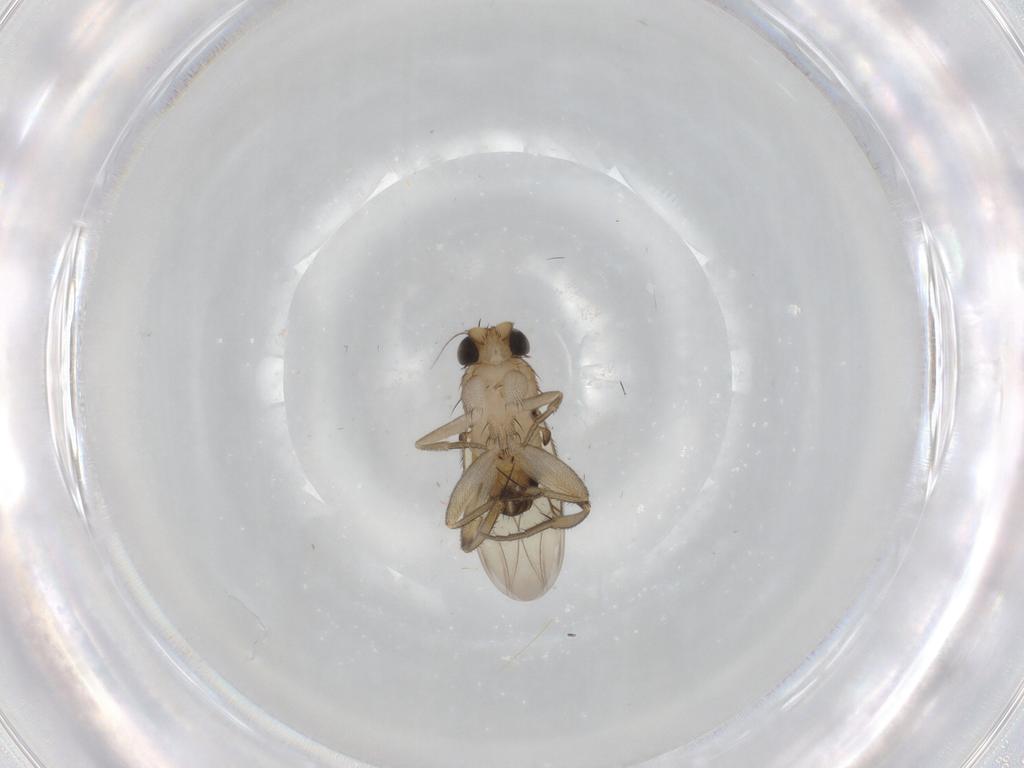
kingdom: Animalia
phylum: Arthropoda
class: Insecta
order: Diptera
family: Phoridae
